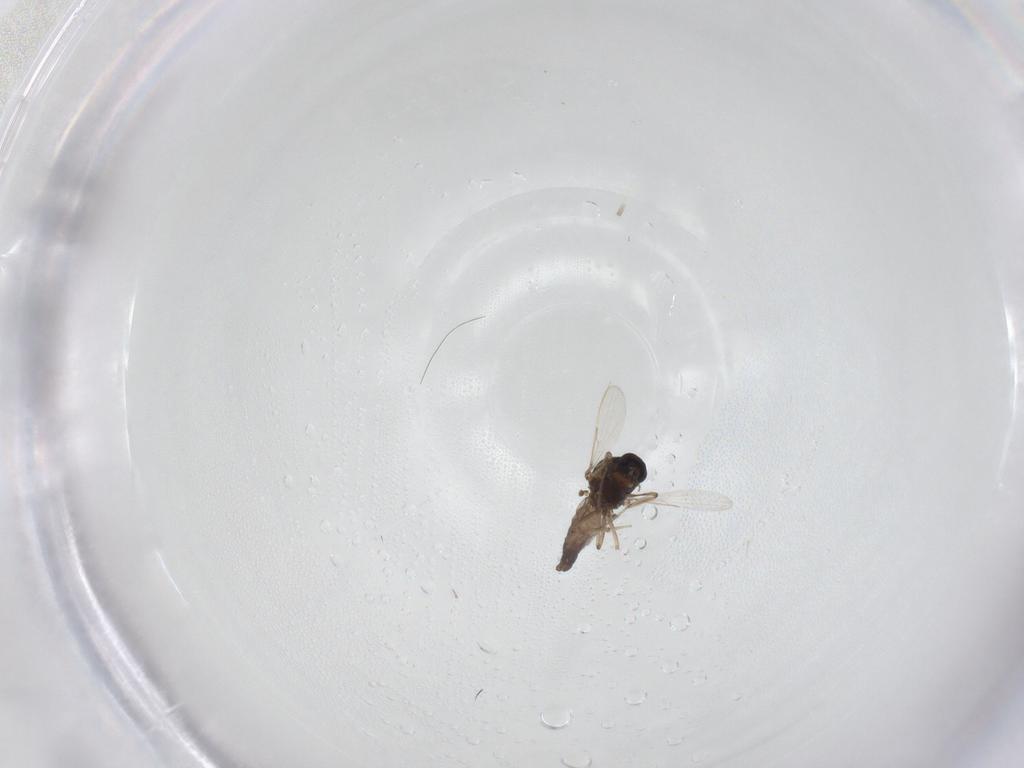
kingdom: Animalia
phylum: Arthropoda
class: Insecta
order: Diptera
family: Ceratopogonidae
